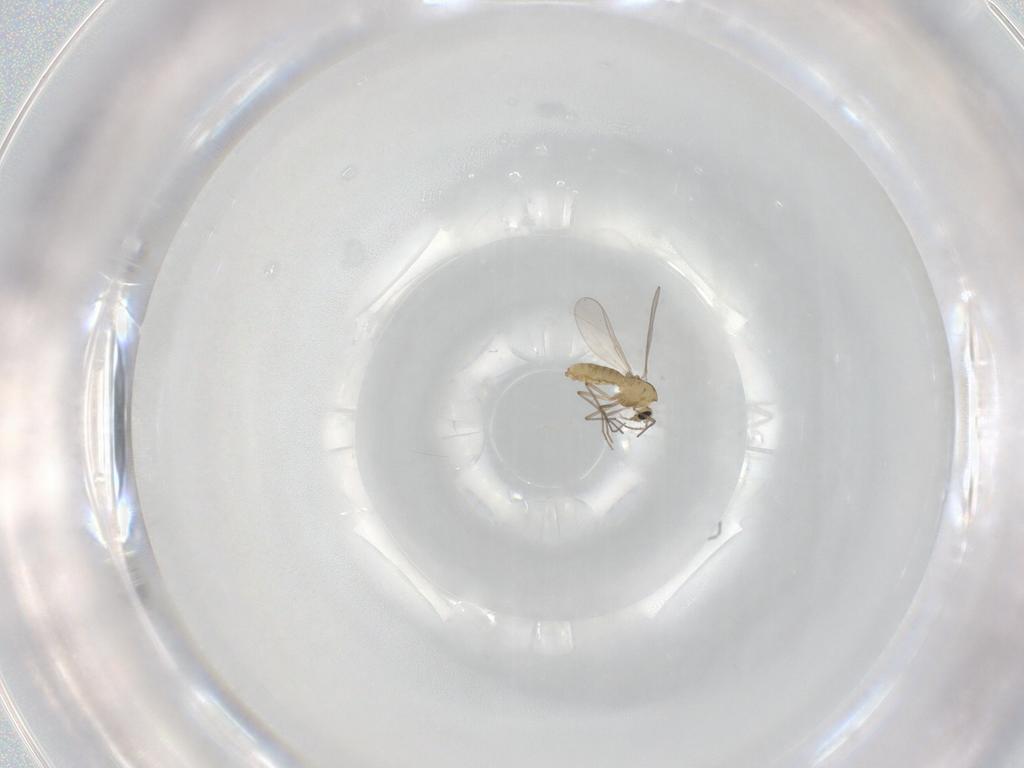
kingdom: Animalia
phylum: Arthropoda
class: Insecta
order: Diptera
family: Chironomidae
